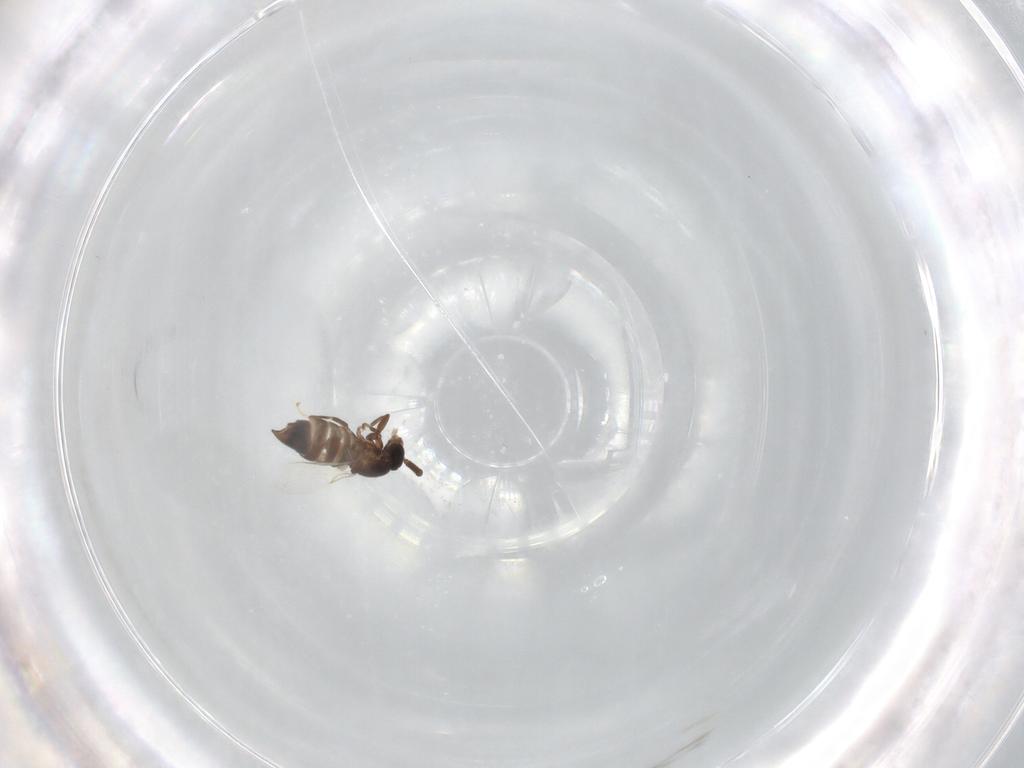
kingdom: Animalia
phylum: Arthropoda
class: Insecta
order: Diptera
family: Scatopsidae
